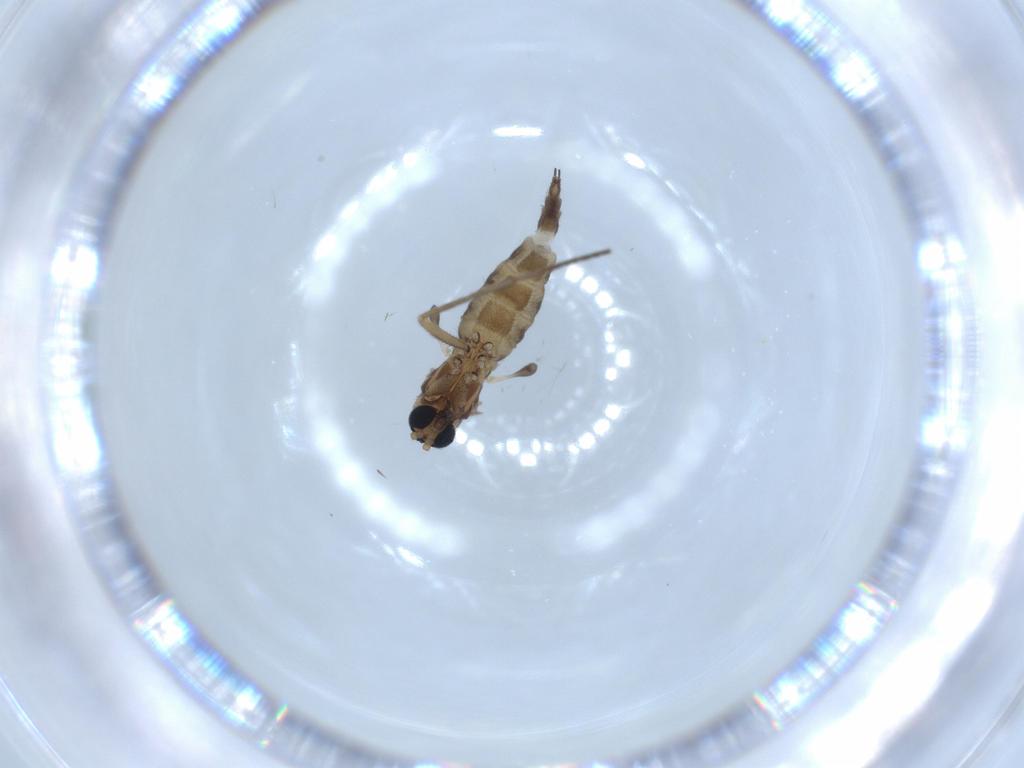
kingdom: Animalia
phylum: Arthropoda
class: Insecta
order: Diptera
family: Sciaridae
